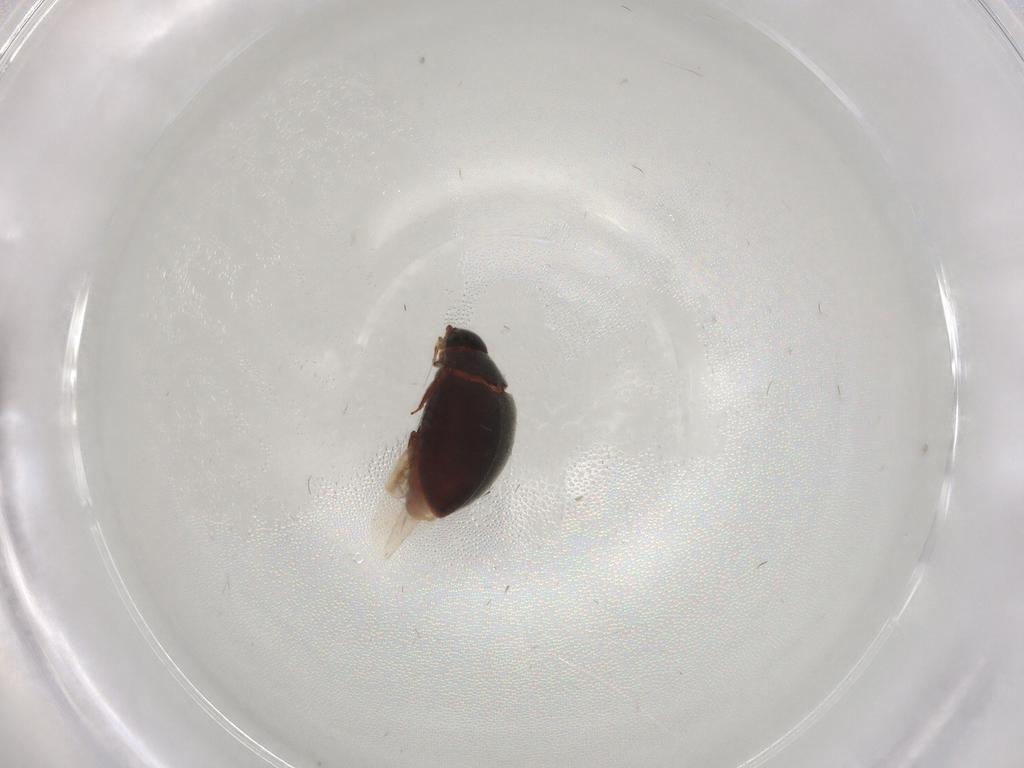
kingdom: Animalia
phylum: Arthropoda
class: Insecta
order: Coleoptera
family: Limnichidae
